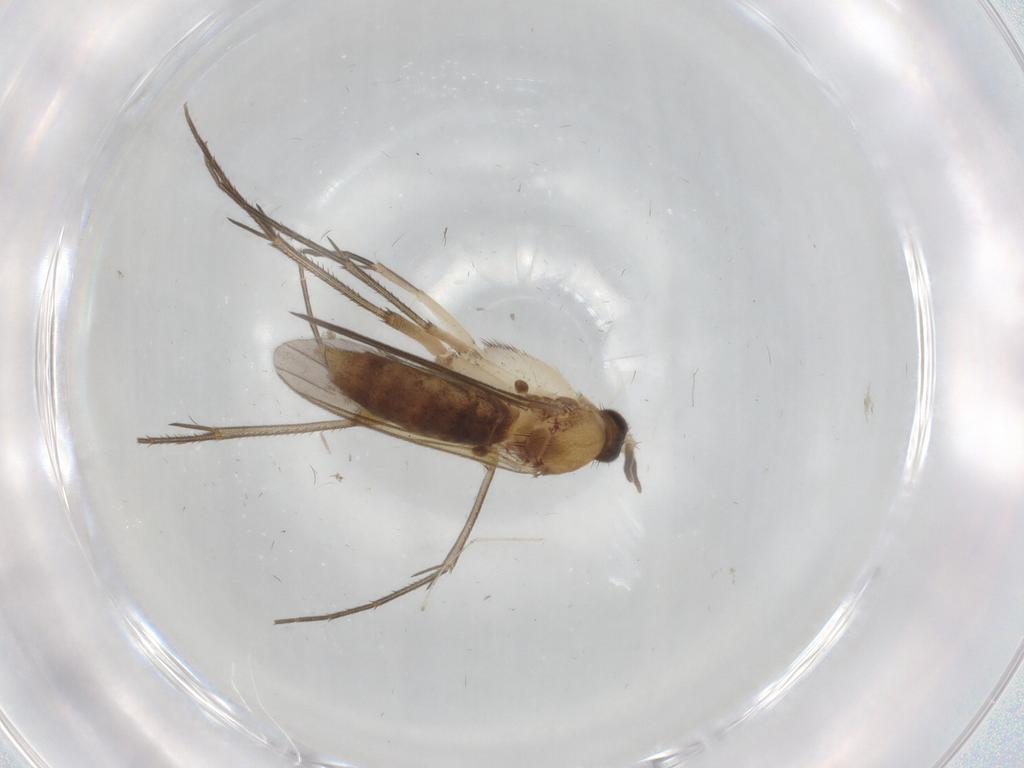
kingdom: Animalia
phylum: Arthropoda
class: Insecta
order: Diptera
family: Mycetophilidae
